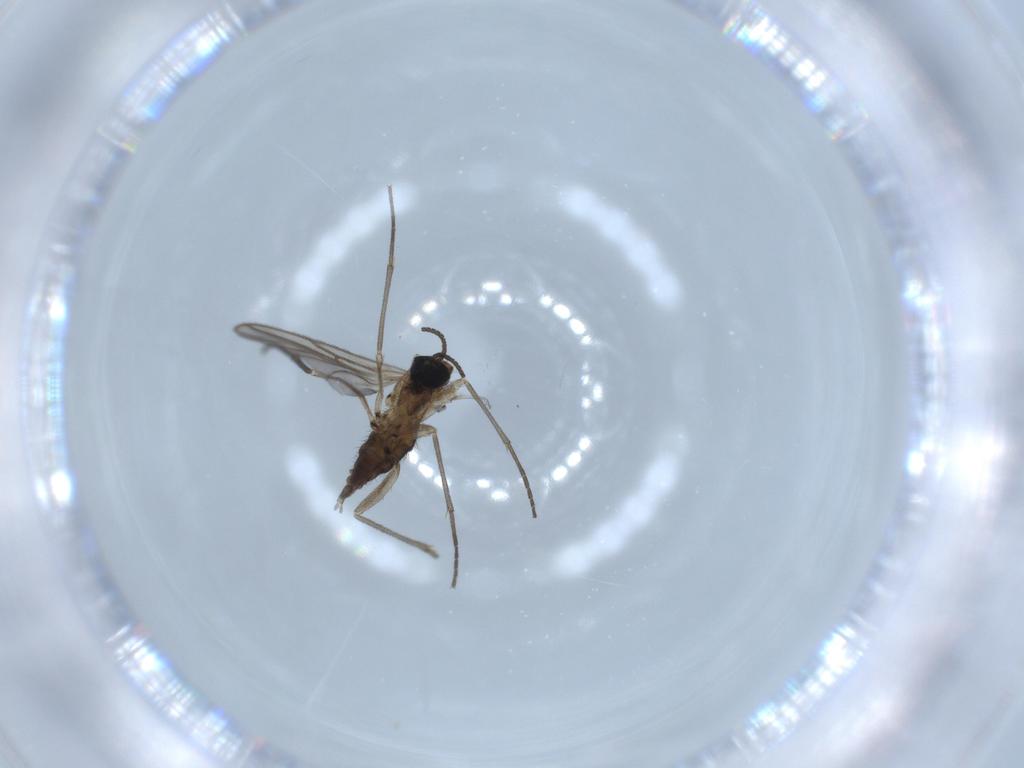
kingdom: Animalia
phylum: Arthropoda
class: Insecta
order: Diptera
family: Sciaridae
